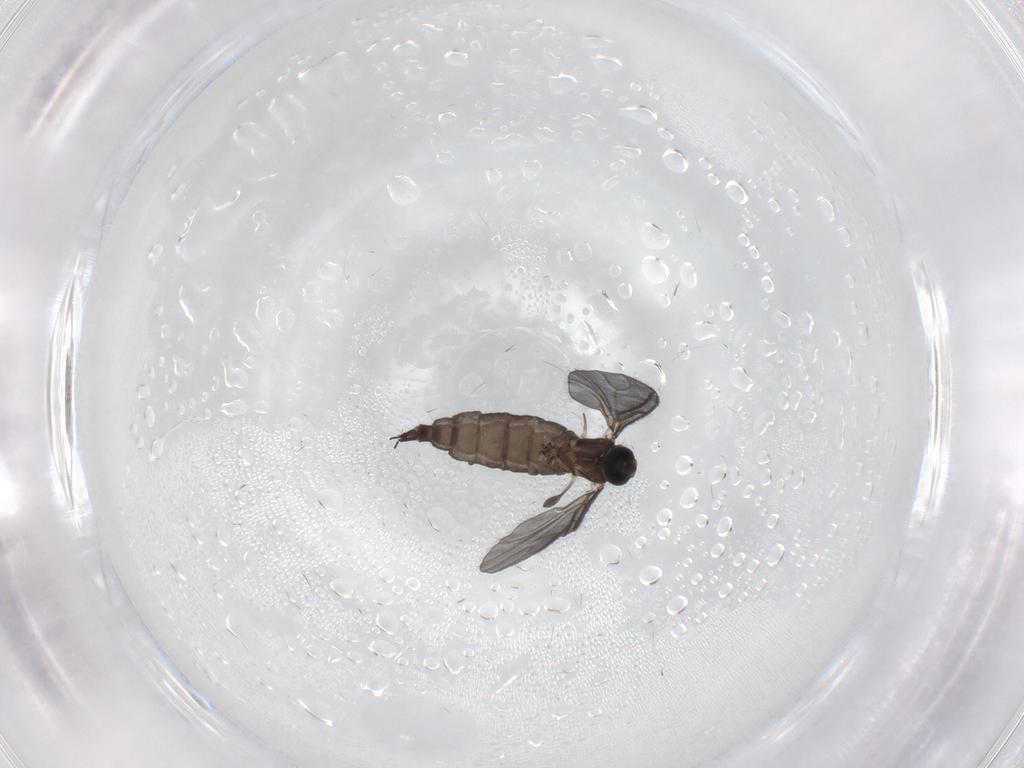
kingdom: Animalia
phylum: Arthropoda
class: Insecta
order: Diptera
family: Sciaridae
